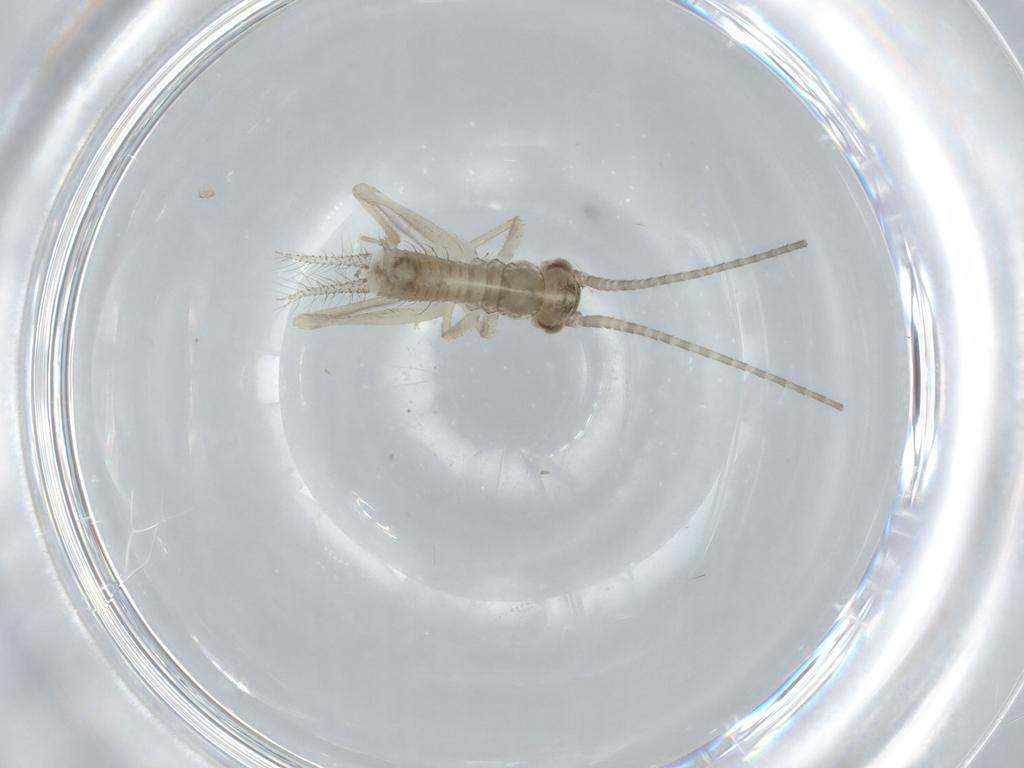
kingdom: Animalia
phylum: Arthropoda
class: Insecta
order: Orthoptera
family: Gryllidae
